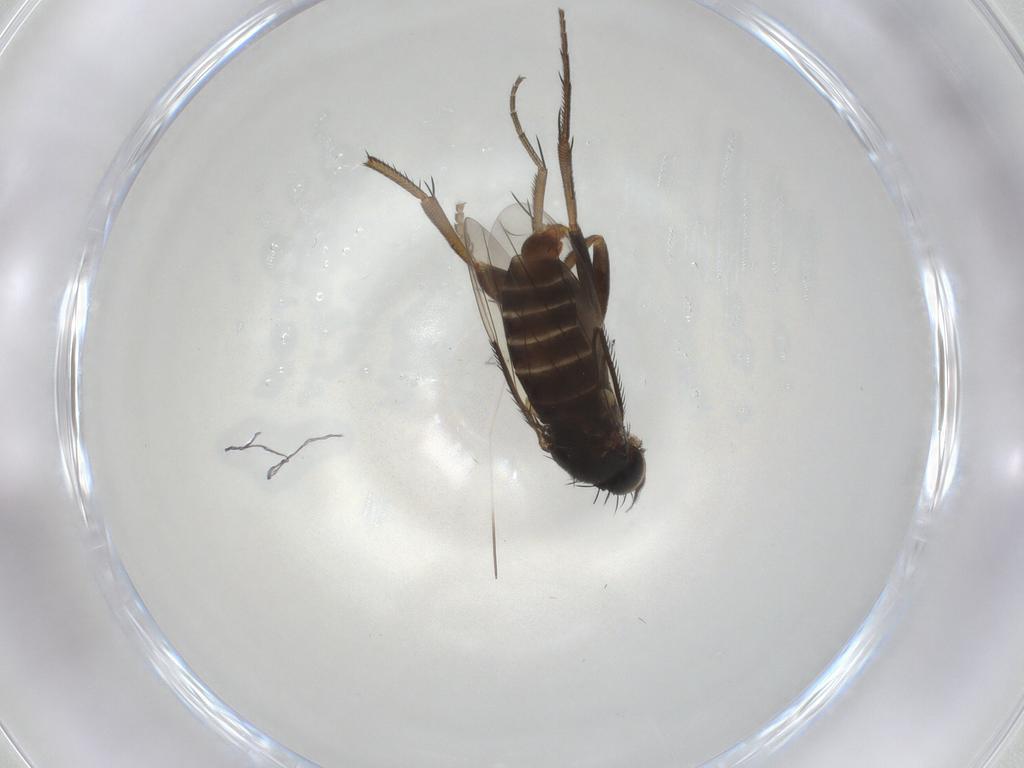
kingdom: Animalia
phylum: Arthropoda
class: Insecta
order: Diptera
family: Phoridae
